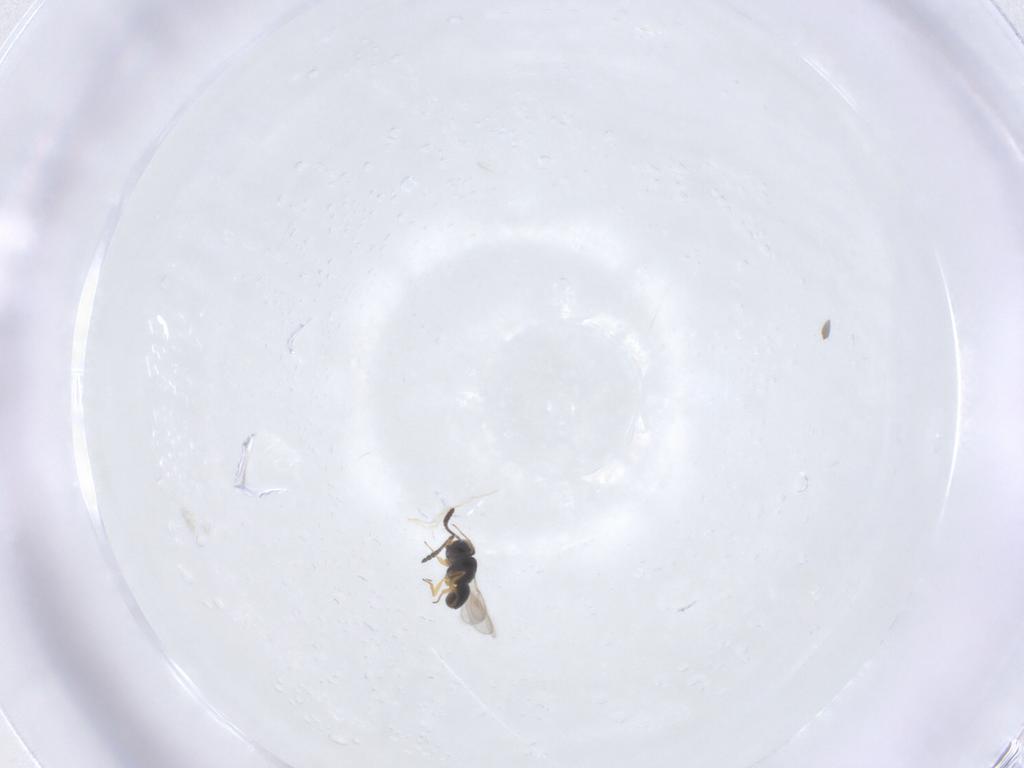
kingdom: Animalia
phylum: Arthropoda
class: Insecta
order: Hymenoptera
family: Scelionidae
